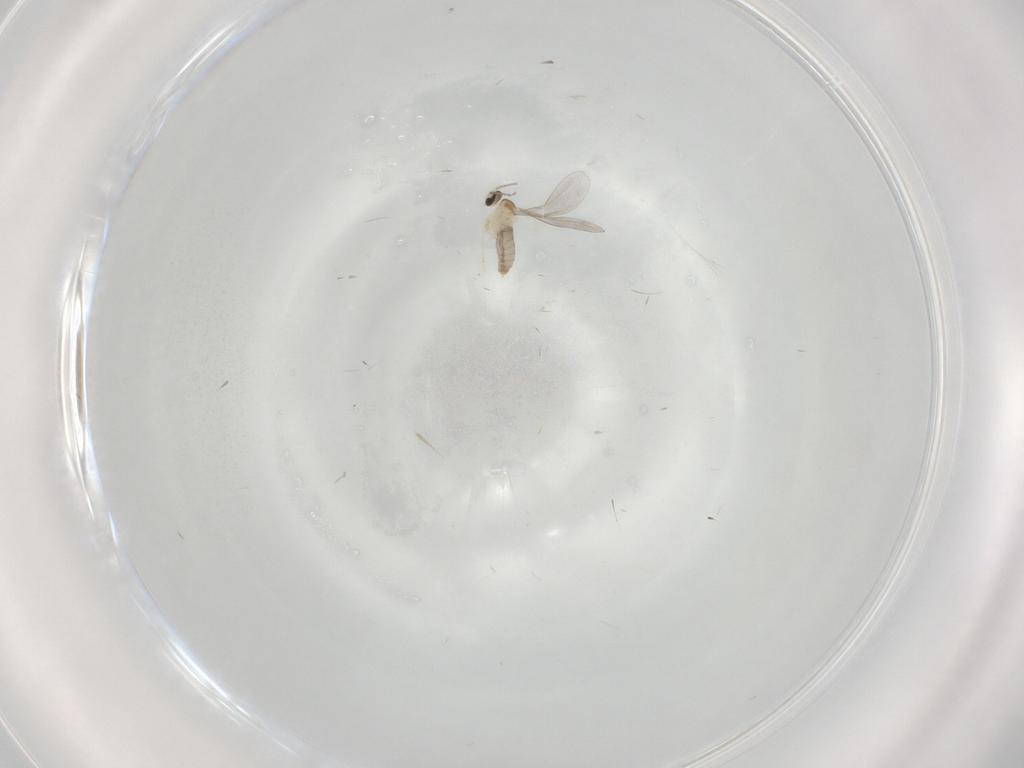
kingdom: Animalia
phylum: Arthropoda
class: Insecta
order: Diptera
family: Cecidomyiidae
